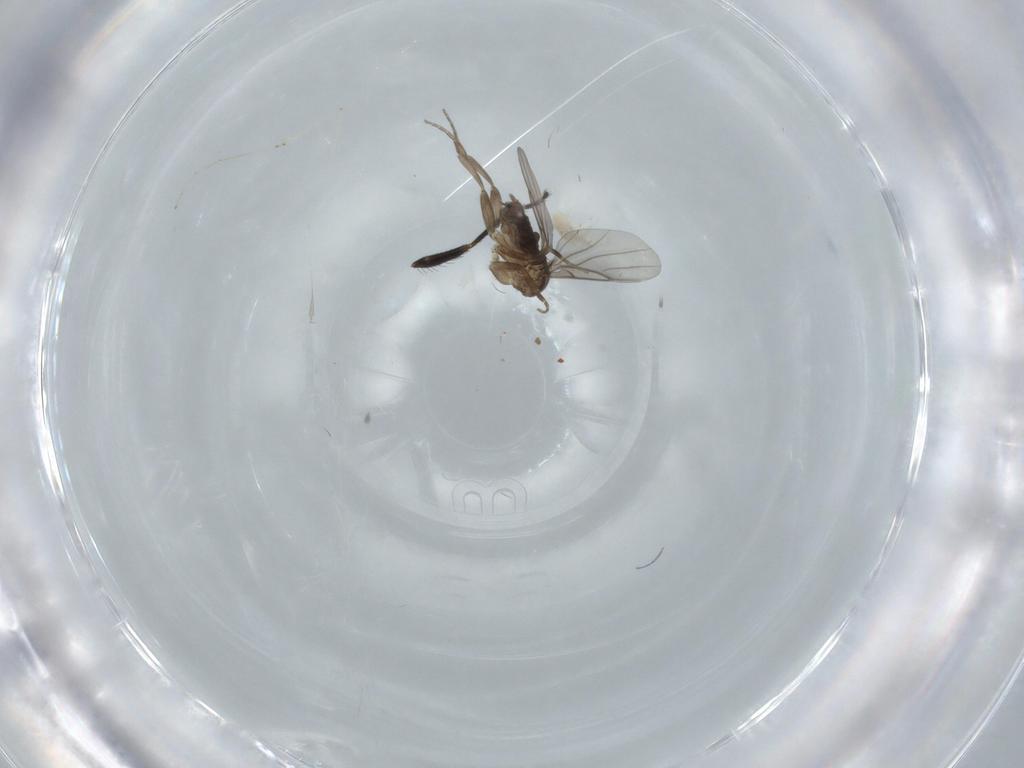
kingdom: Animalia
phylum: Arthropoda
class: Insecta
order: Diptera
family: Phoridae
